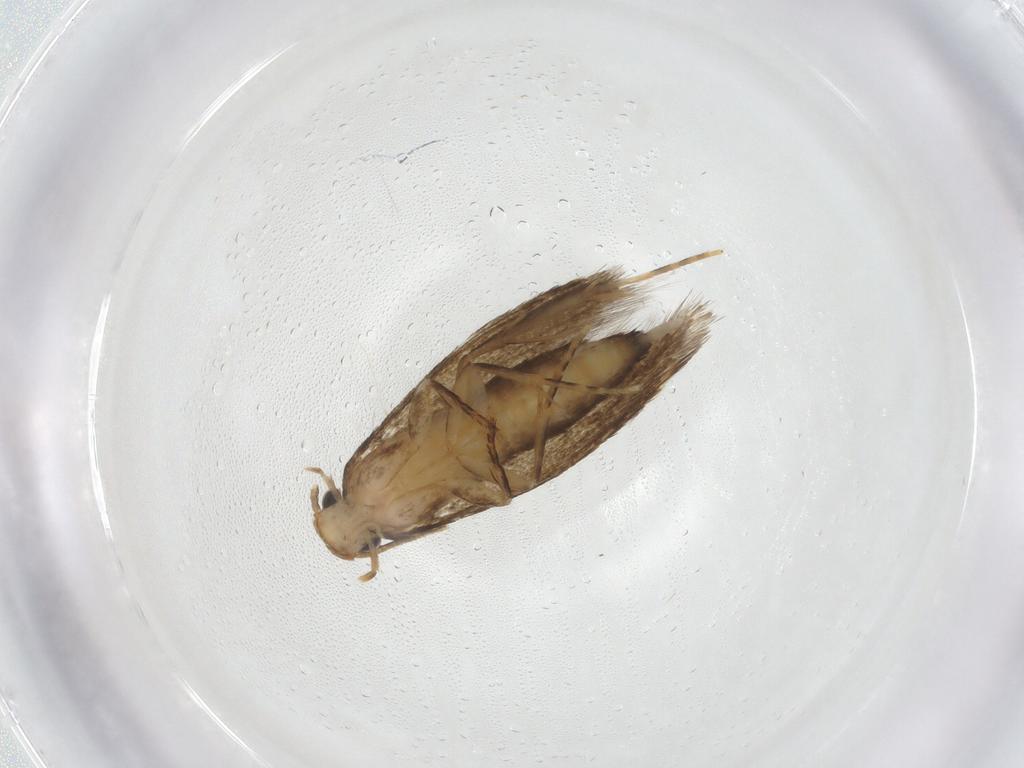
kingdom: Animalia
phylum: Arthropoda
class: Insecta
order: Lepidoptera
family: Tineidae
